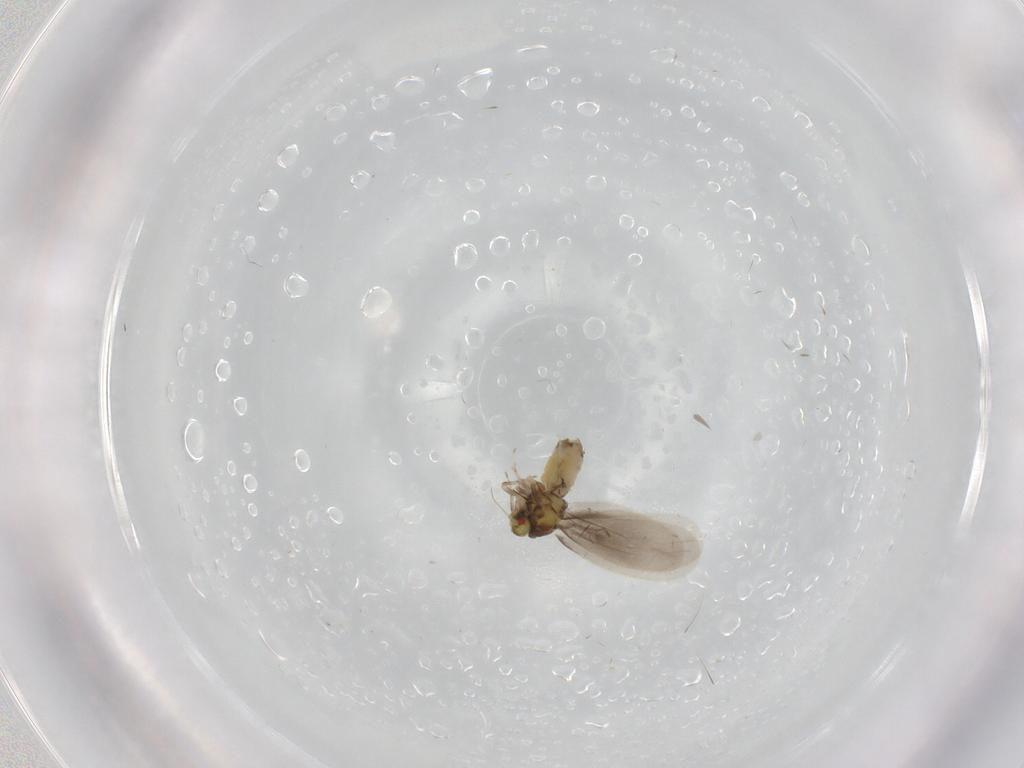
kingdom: Animalia
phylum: Arthropoda
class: Insecta
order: Hemiptera
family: Aleyrodidae
